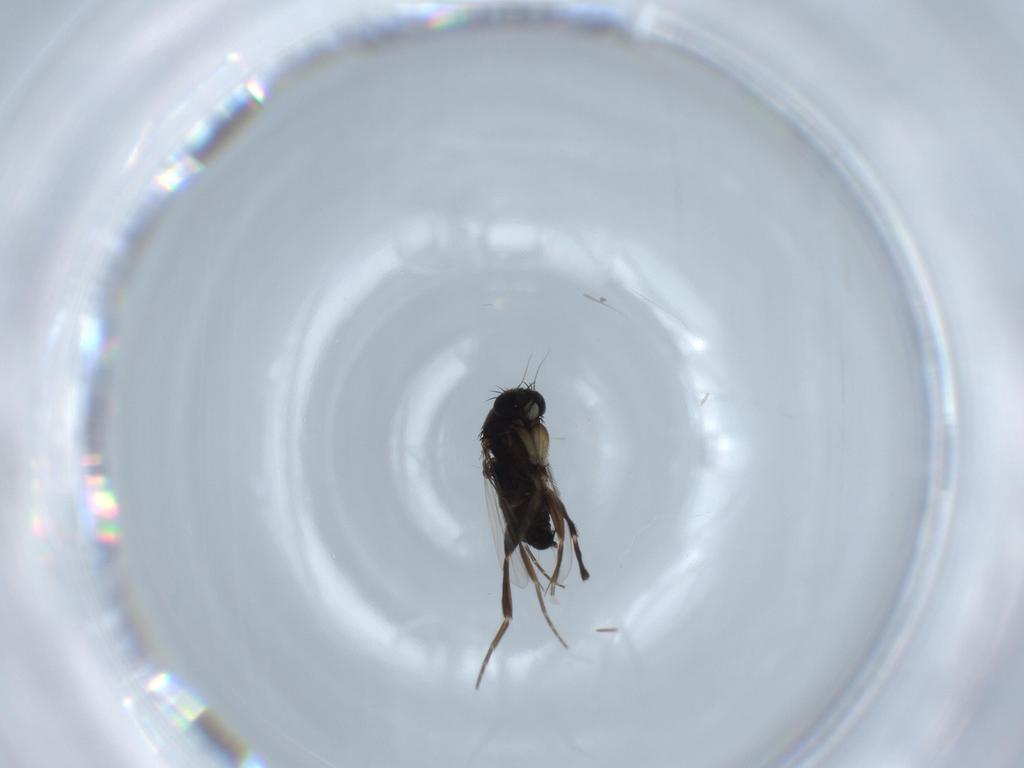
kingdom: Animalia
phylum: Arthropoda
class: Insecta
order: Diptera
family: Phoridae
